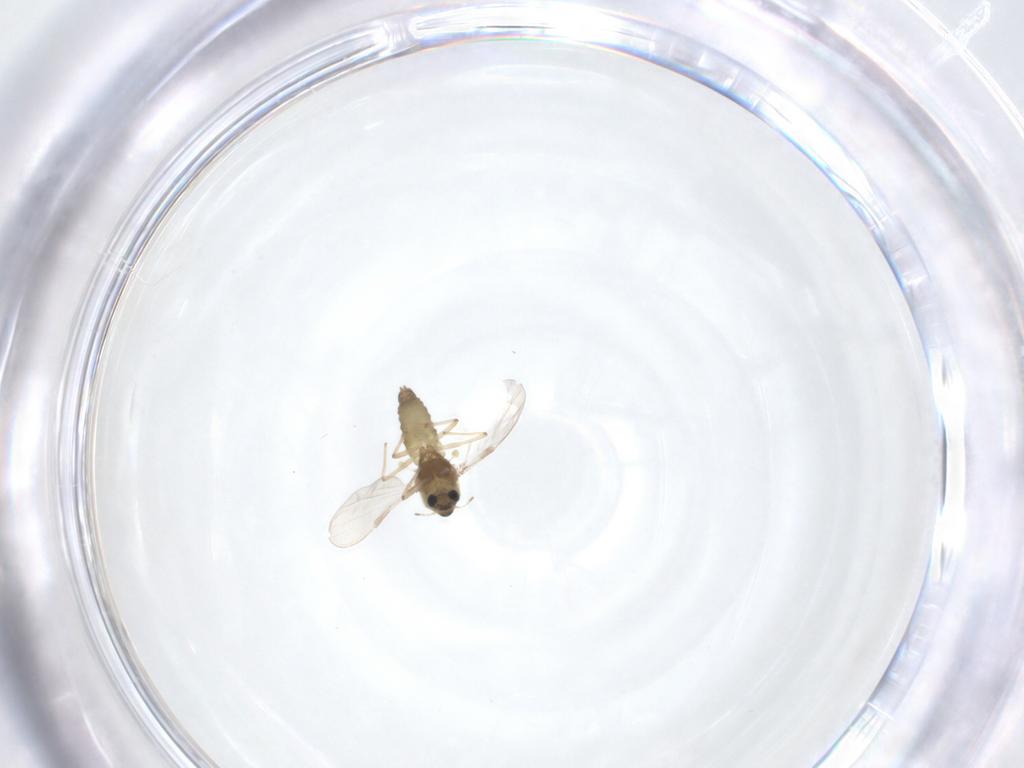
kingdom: Animalia
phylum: Arthropoda
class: Insecta
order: Diptera
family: Chironomidae
